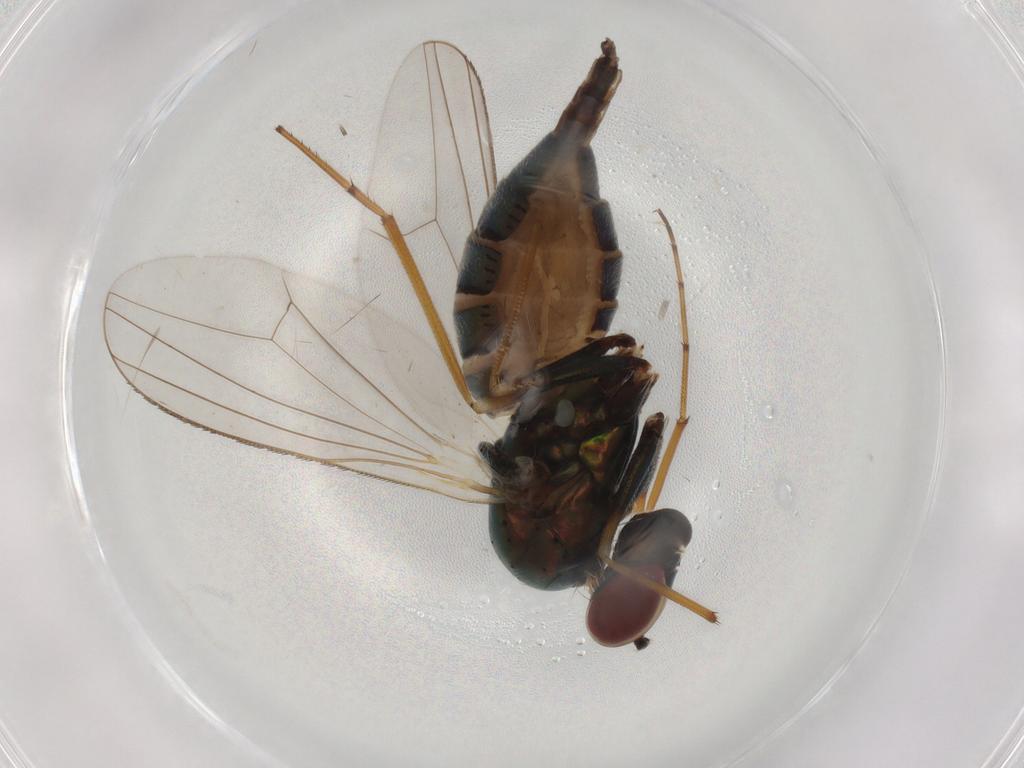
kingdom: Animalia
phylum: Arthropoda
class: Insecta
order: Diptera
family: Dolichopodidae
